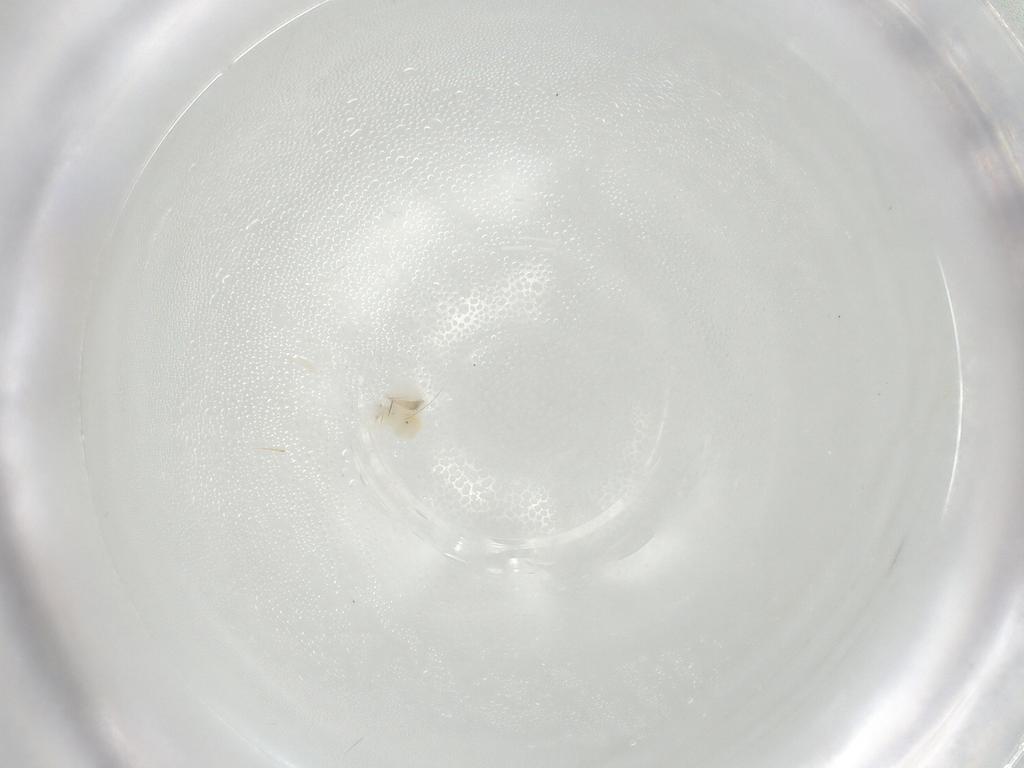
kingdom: Animalia
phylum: Arthropoda
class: Arachnida
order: Trombidiformes
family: Anystidae
